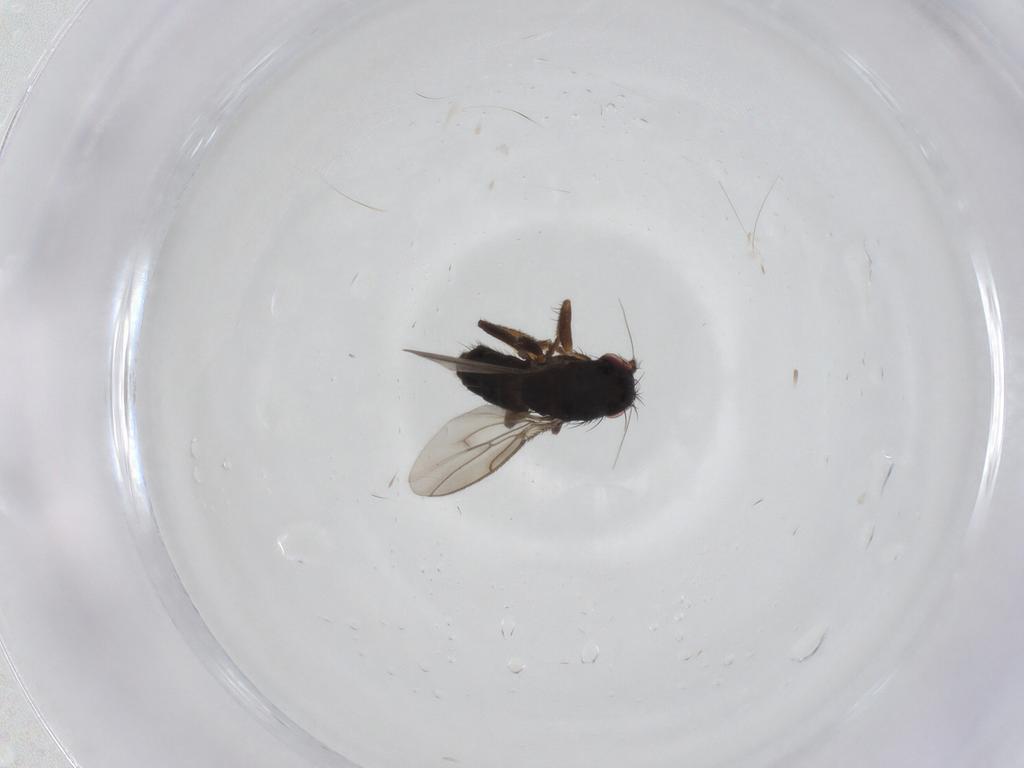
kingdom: Animalia
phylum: Arthropoda
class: Insecta
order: Diptera
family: Sphaeroceridae
